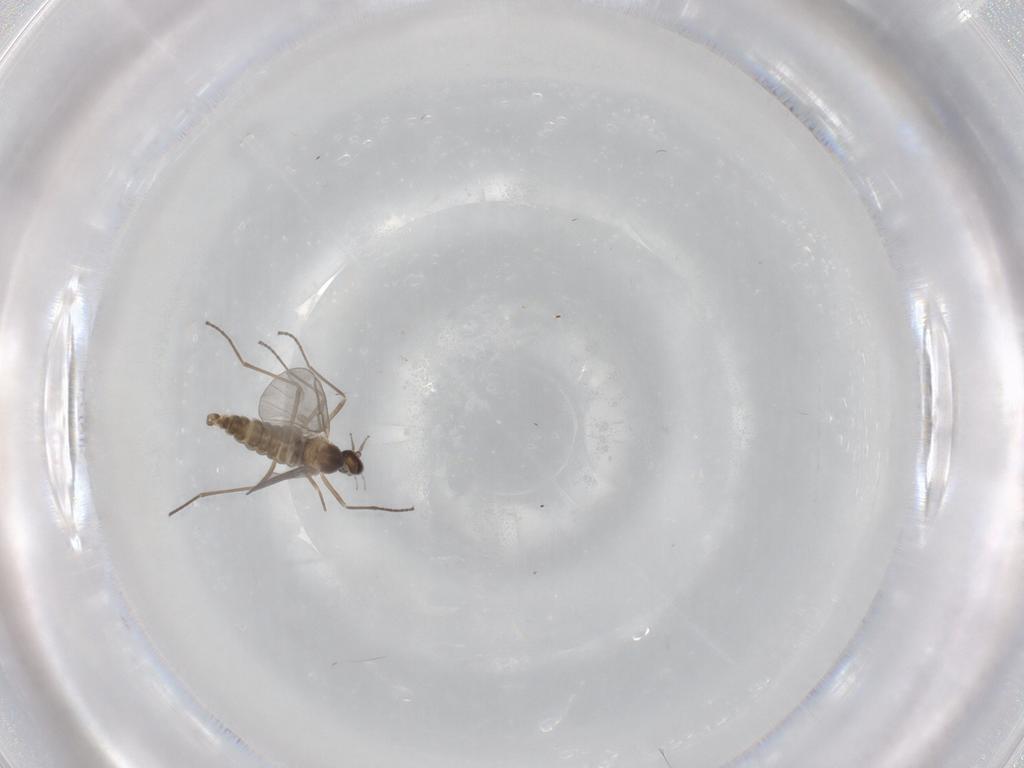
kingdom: Animalia
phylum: Arthropoda
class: Insecta
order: Diptera
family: Cecidomyiidae
